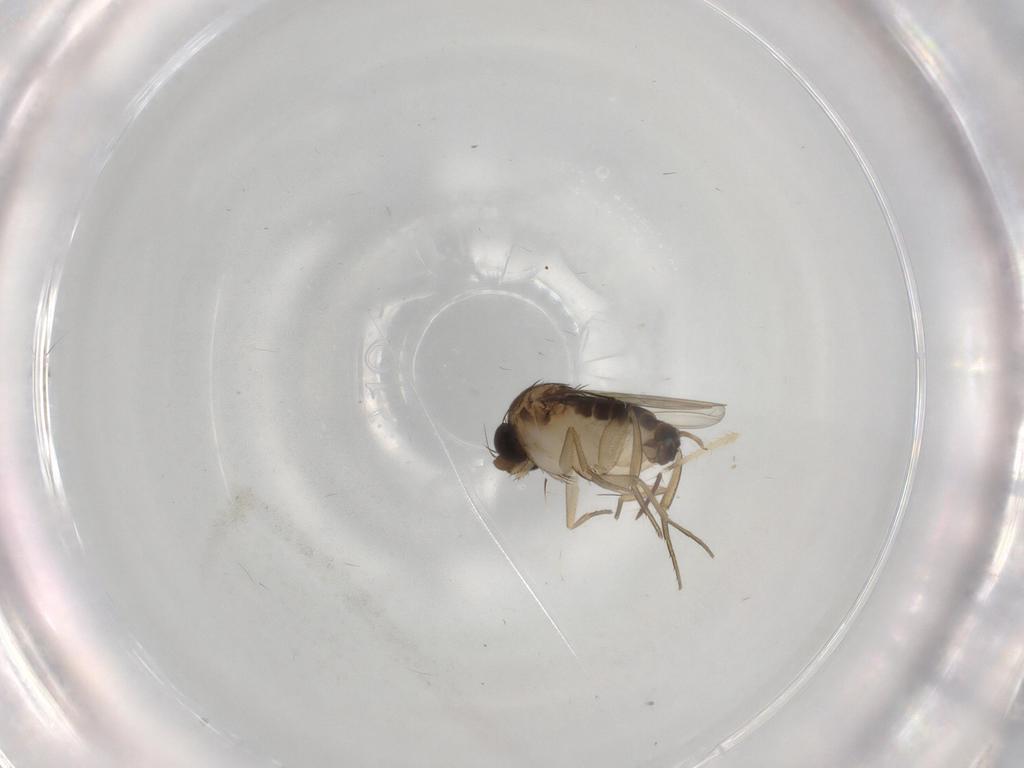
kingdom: Animalia
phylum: Arthropoda
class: Insecta
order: Diptera
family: Phoridae
